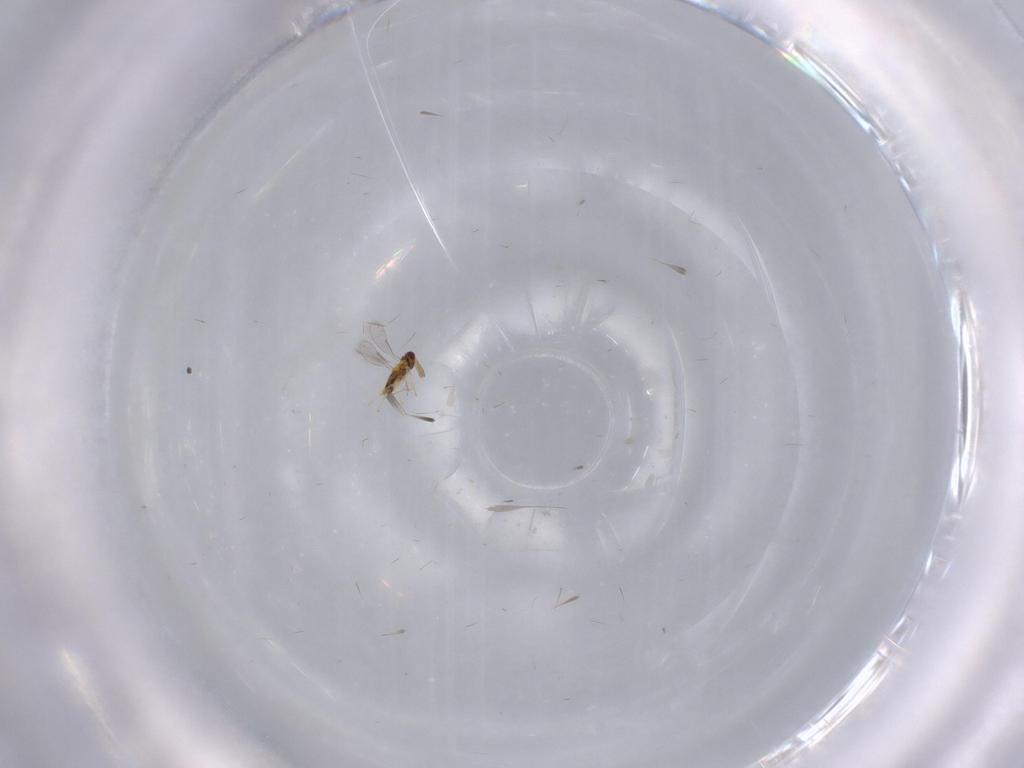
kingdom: Animalia
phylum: Arthropoda
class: Insecta
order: Hymenoptera
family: Aphelinidae
